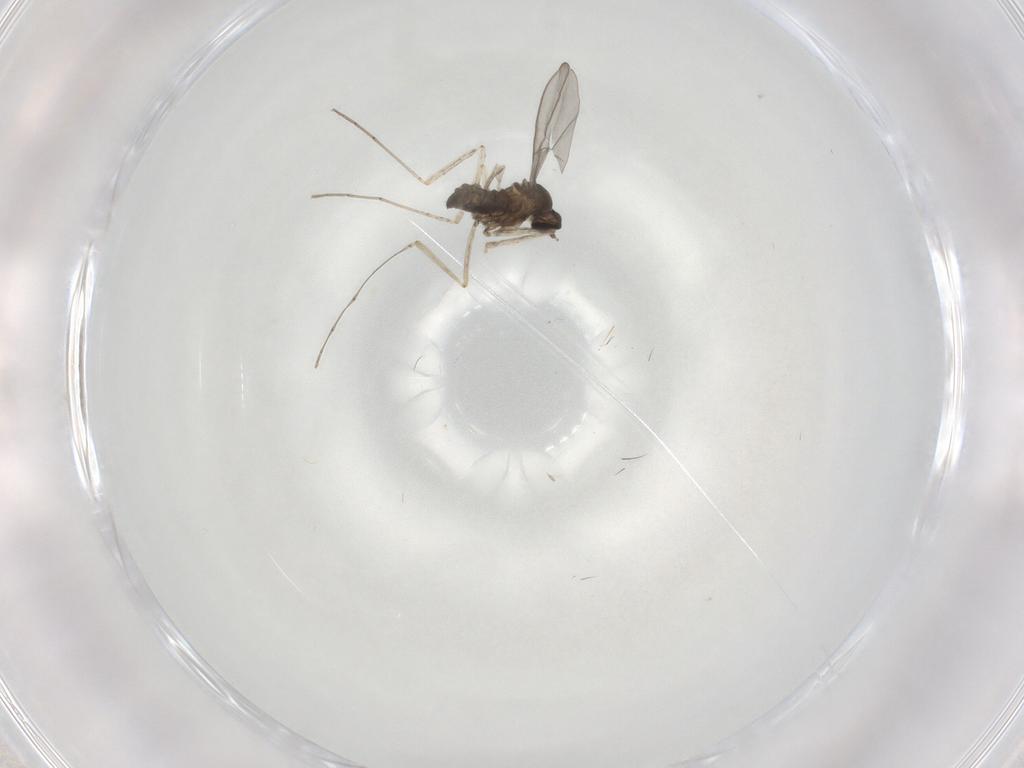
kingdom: Animalia
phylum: Arthropoda
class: Insecta
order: Diptera
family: Cecidomyiidae
